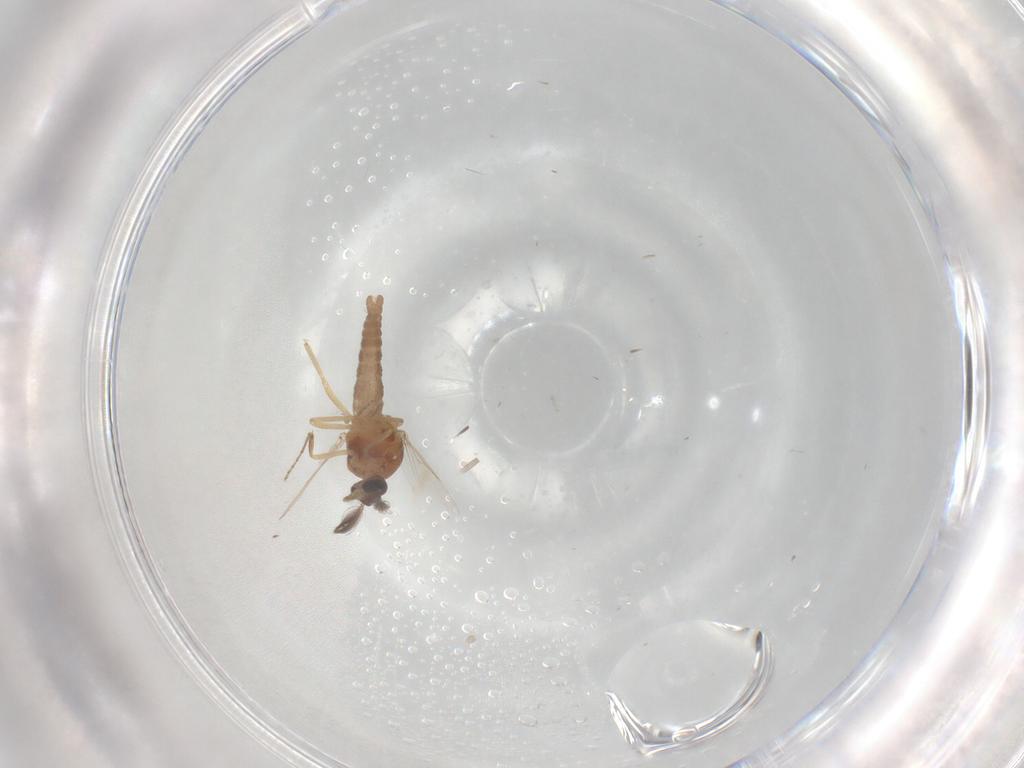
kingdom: Animalia
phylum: Arthropoda
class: Insecta
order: Diptera
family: Ceratopogonidae
